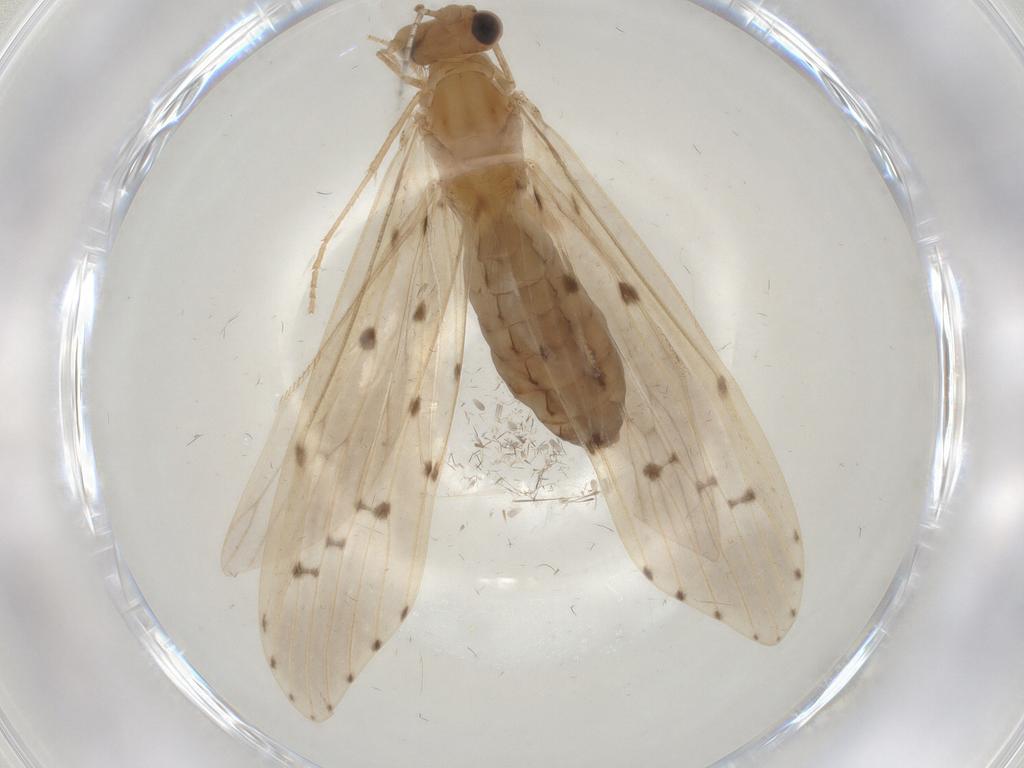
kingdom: Animalia
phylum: Arthropoda
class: Insecta
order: Trichoptera
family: Leptoceridae
